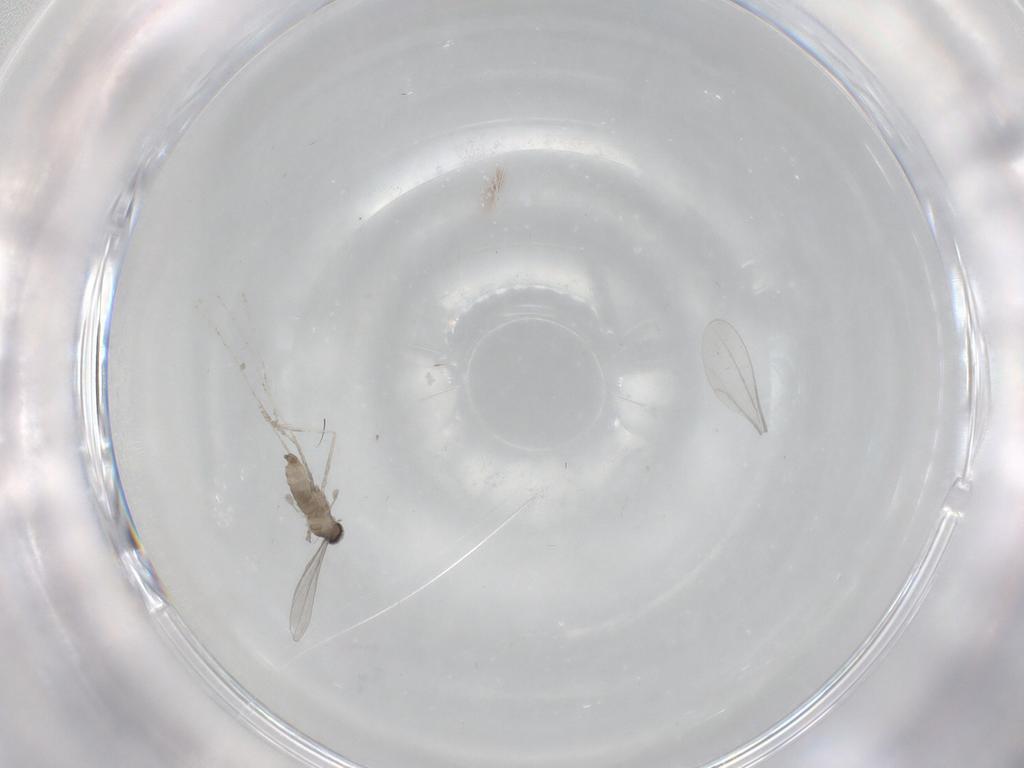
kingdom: Animalia
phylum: Arthropoda
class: Insecta
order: Diptera
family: Cecidomyiidae
